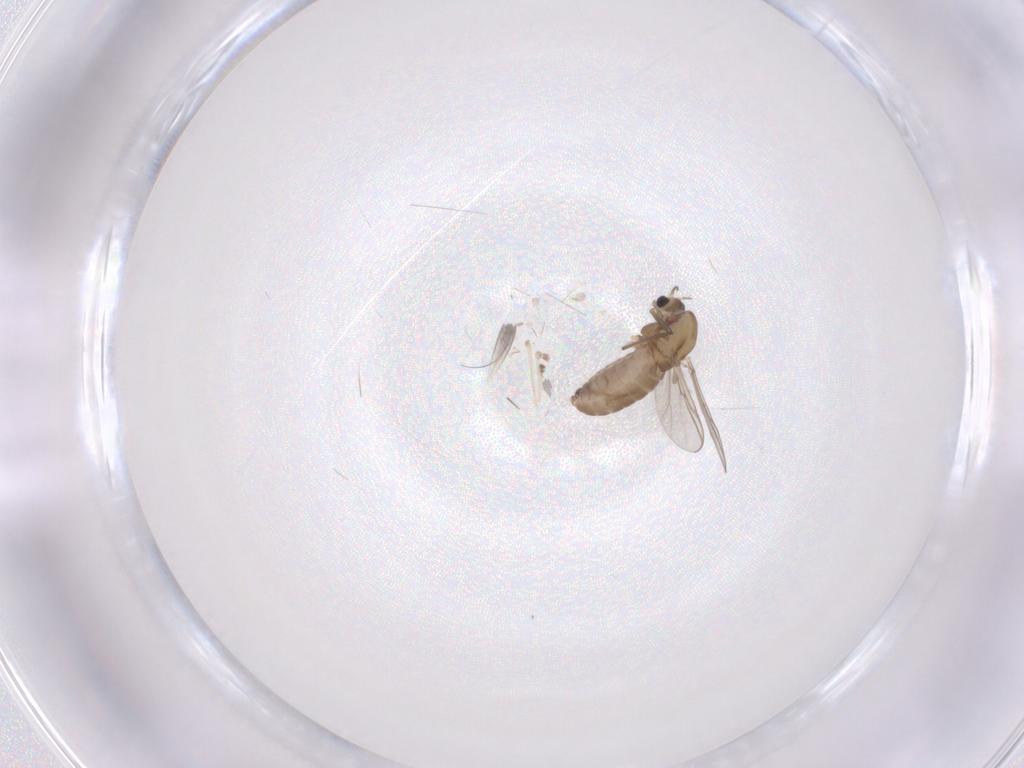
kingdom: Animalia
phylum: Arthropoda
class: Insecta
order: Diptera
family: Chironomidae
